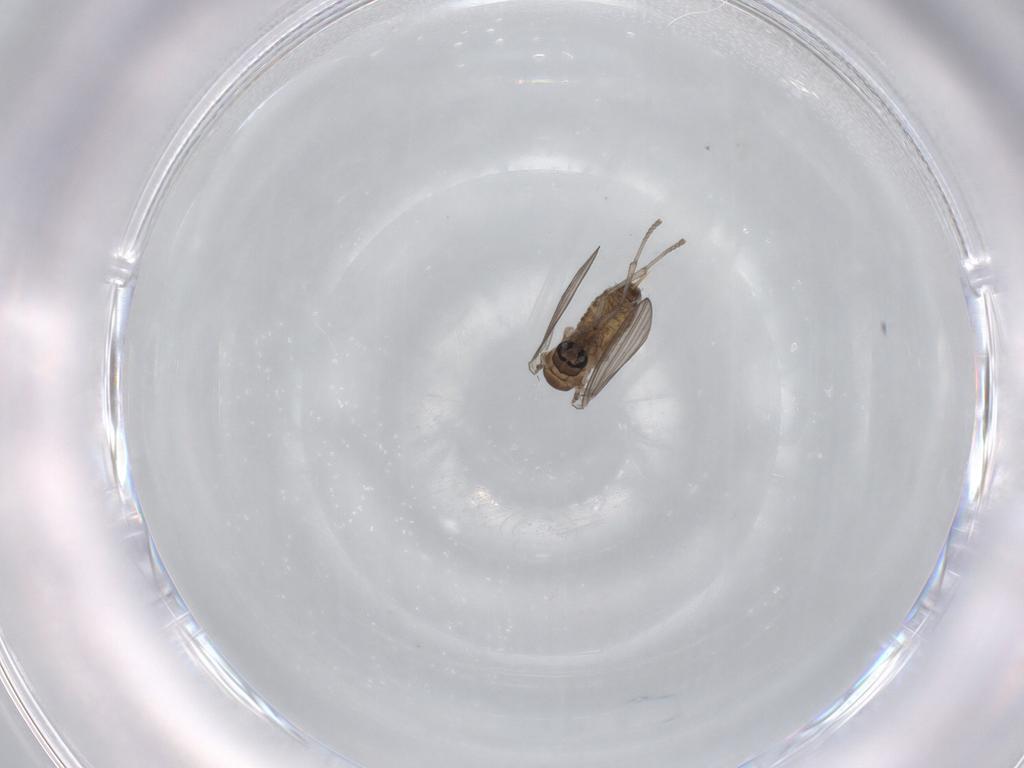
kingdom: Animalia
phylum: Arthropoda
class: Insecta
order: Diptera
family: Psychodidae
